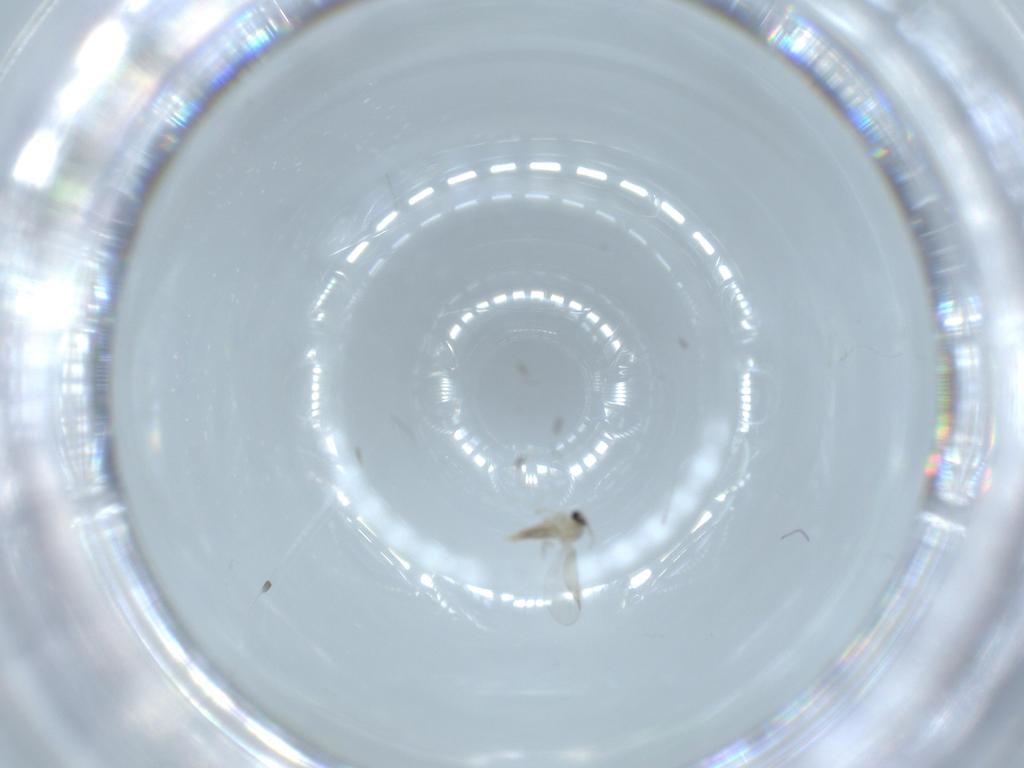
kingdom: Animalia
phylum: Arthropoda
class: Insecta
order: Diptera
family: Cecidomyiidae
